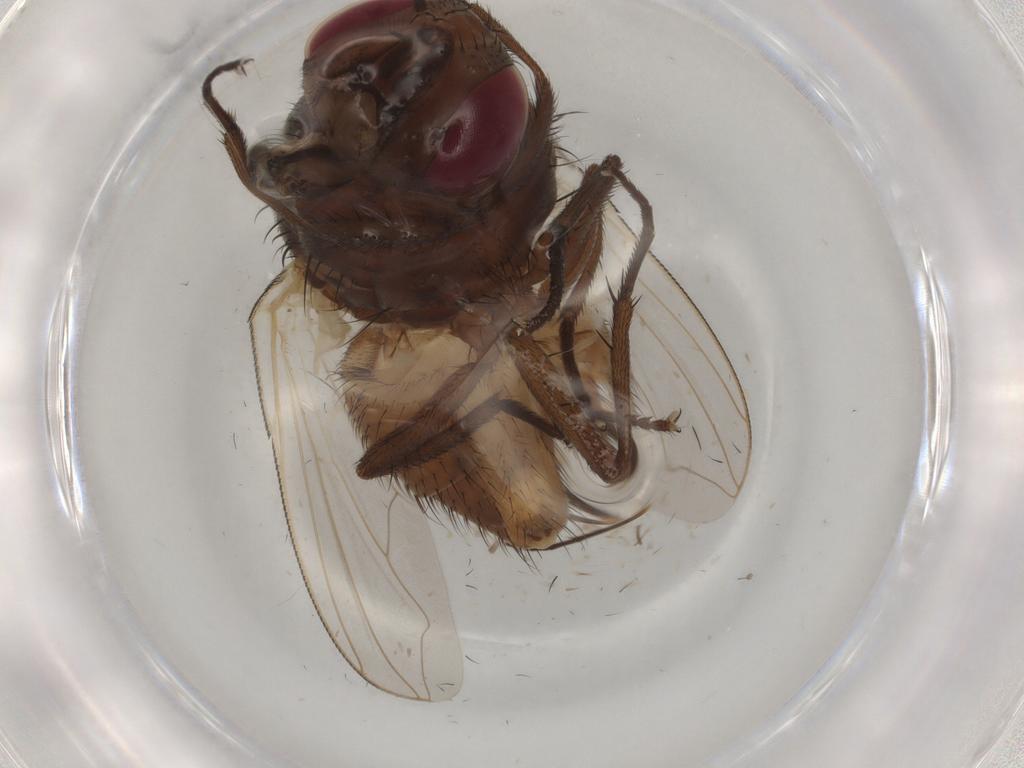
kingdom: Animalia
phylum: Arthropoda
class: Insecta
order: Diptera
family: Muscidae
